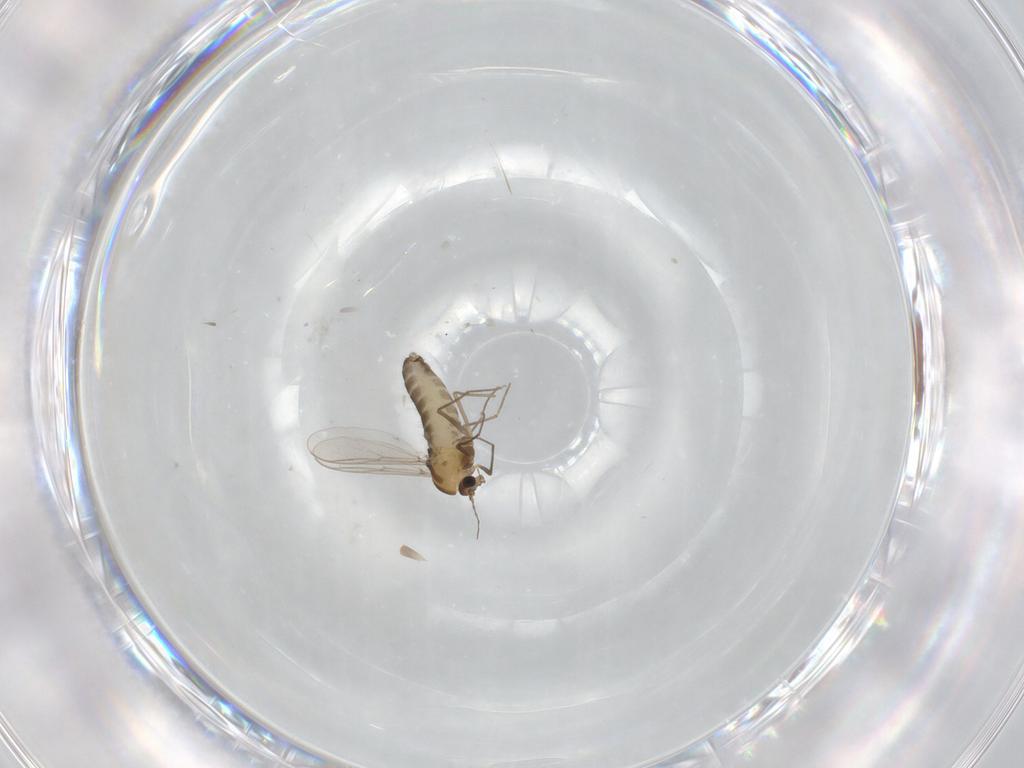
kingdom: Animalia
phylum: Arthropoda
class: Insecta
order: Diptera
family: Chironomidae
